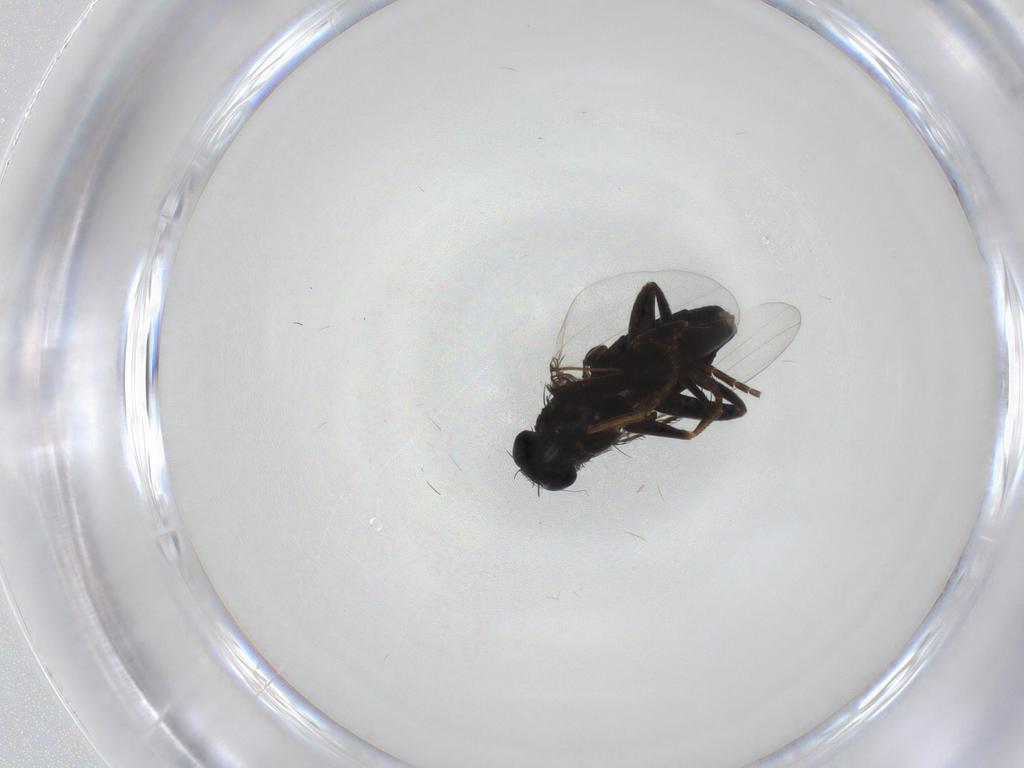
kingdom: Animalia
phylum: Arthropoda
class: Insecta
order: Diptera
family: Phoridae
